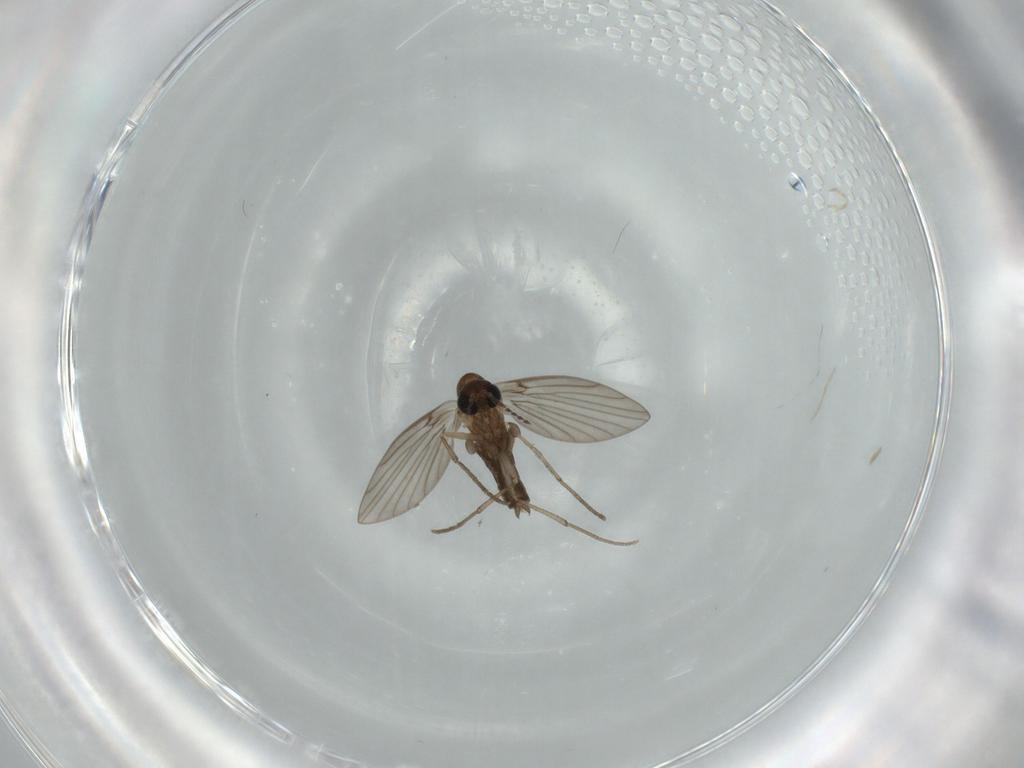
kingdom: Animalia
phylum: Arthropoda
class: Insecta
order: Diptera
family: Psychodidae
